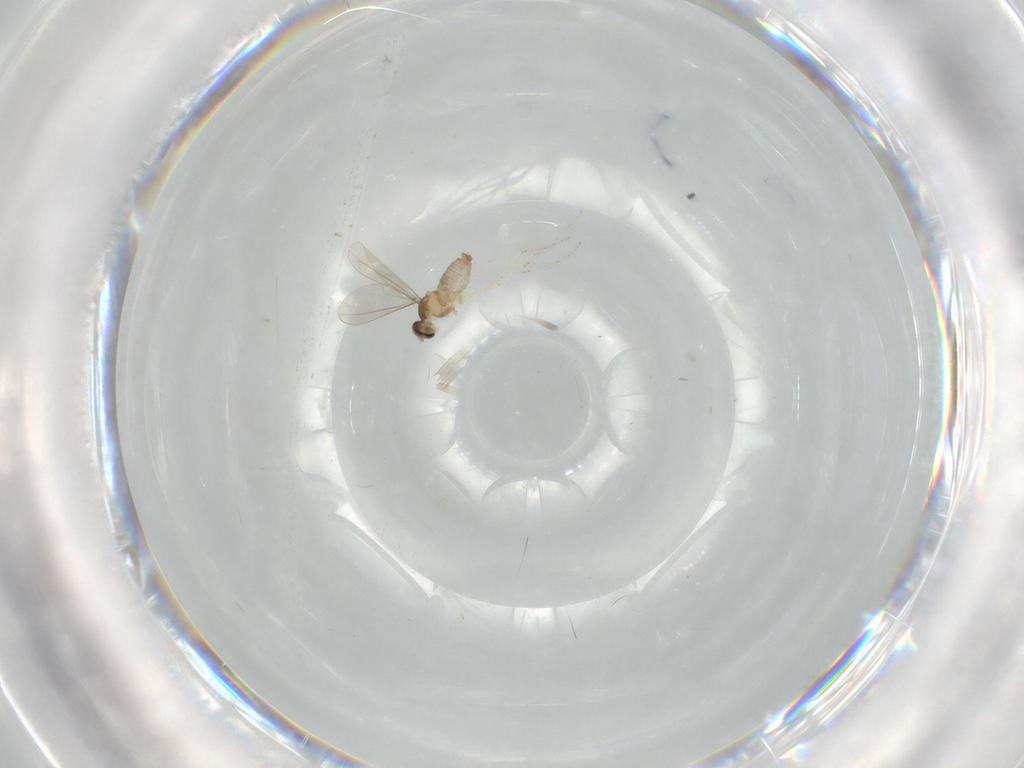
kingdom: Animalia
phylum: Arthropoda
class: Insecta
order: Diptera
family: Cecidomyiidae
